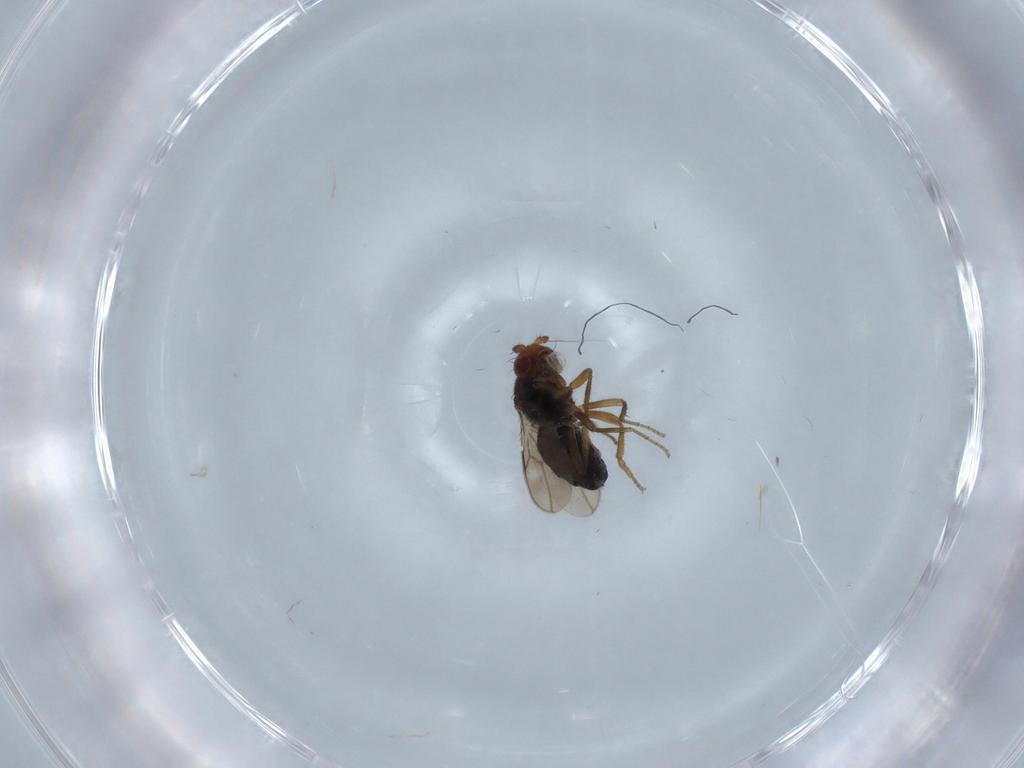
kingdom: Animalia
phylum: Arthropoda
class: Insecta
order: Diptera
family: Sphaeroceridae
